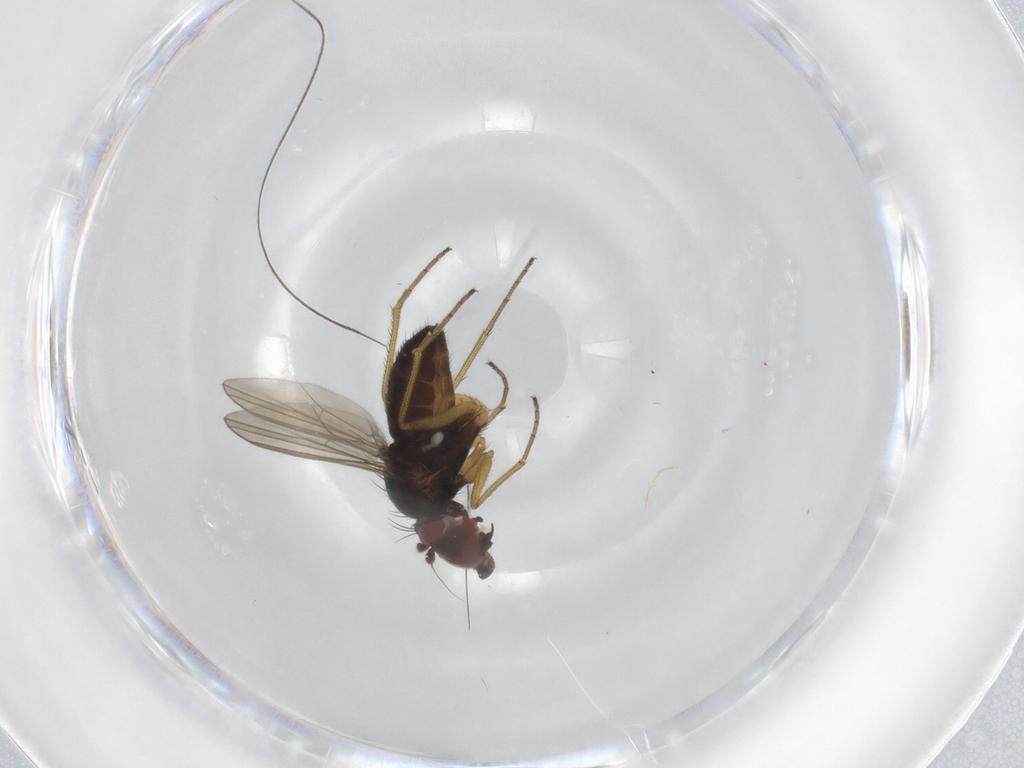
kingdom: Animalia
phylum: Arthropoda
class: Insecta
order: Diptera
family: Dolichopodidae
